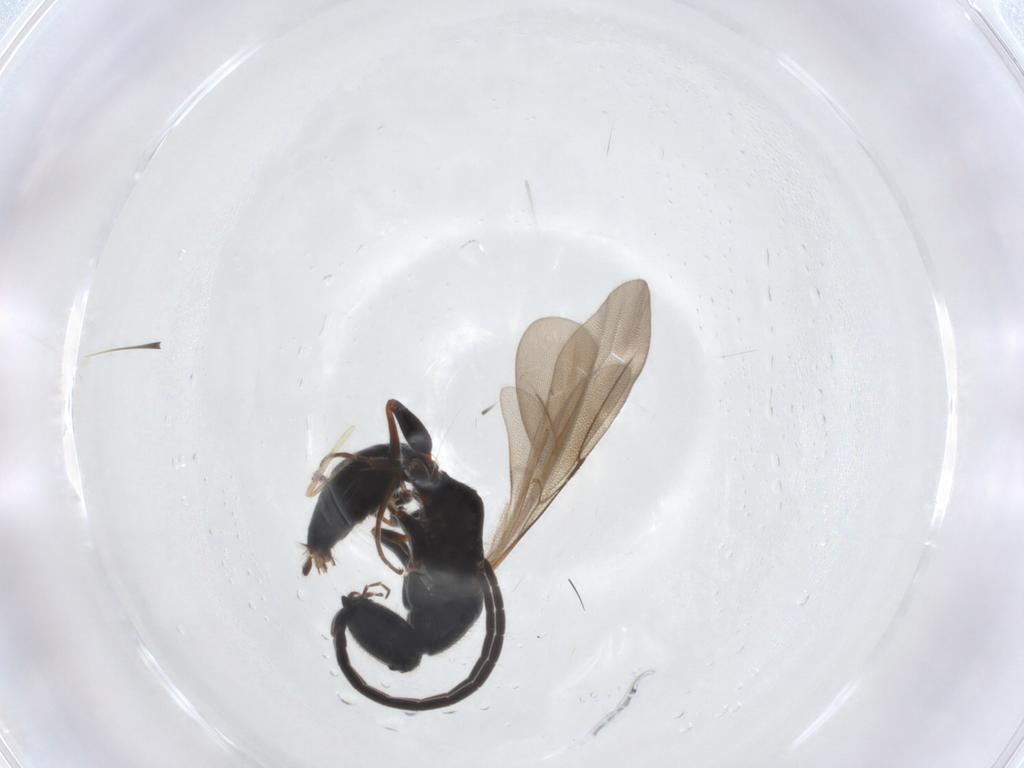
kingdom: Animalia
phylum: Arthropoda
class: Insecta
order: Hymenoptera
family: Bethylidae
